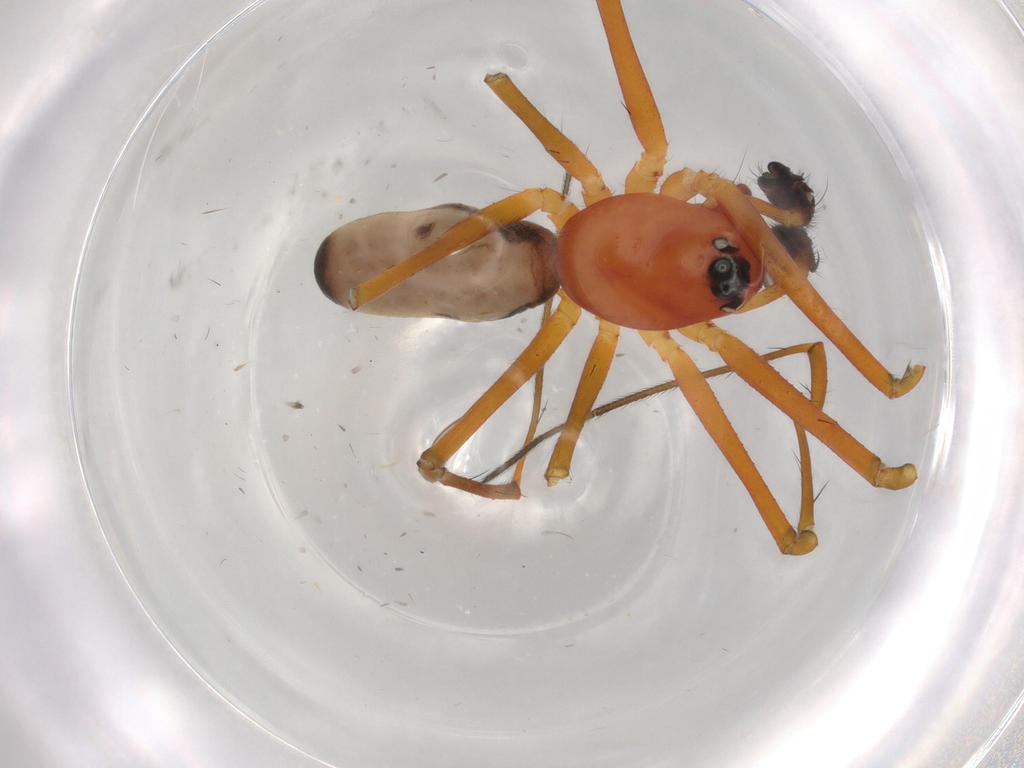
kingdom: Animalia
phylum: Arthropoda
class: Arachnida
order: Araneae
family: Linyphiidae
